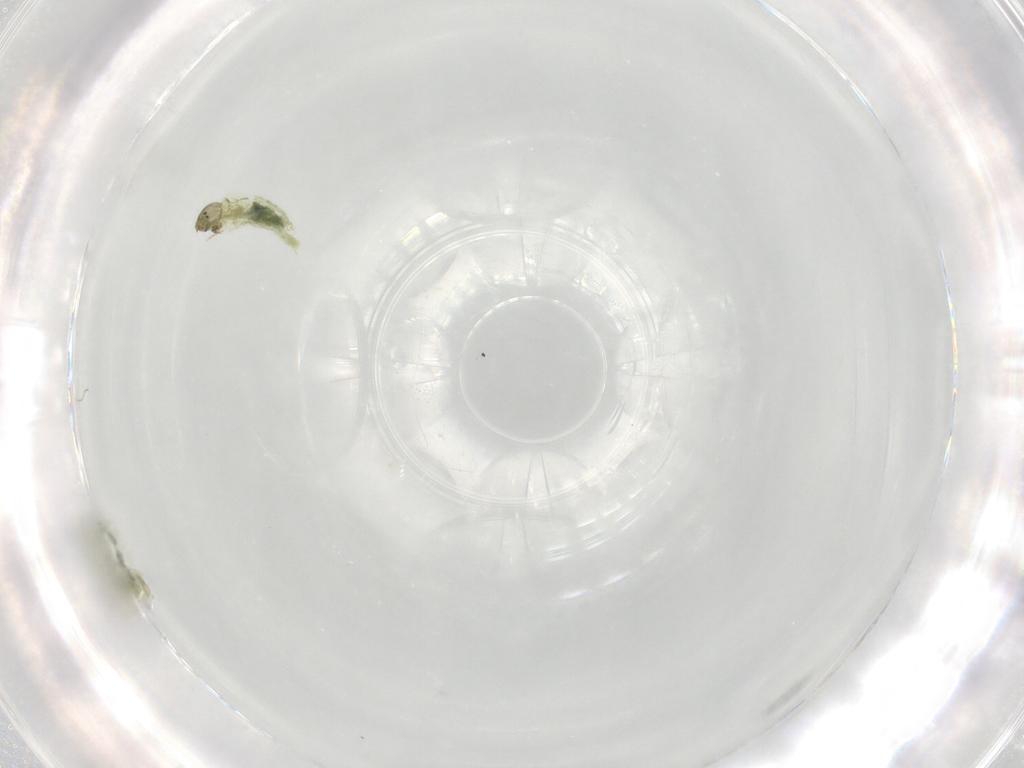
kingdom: Animalia
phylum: Arthropoda
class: Insecta
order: Diptera
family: Chironomidae
